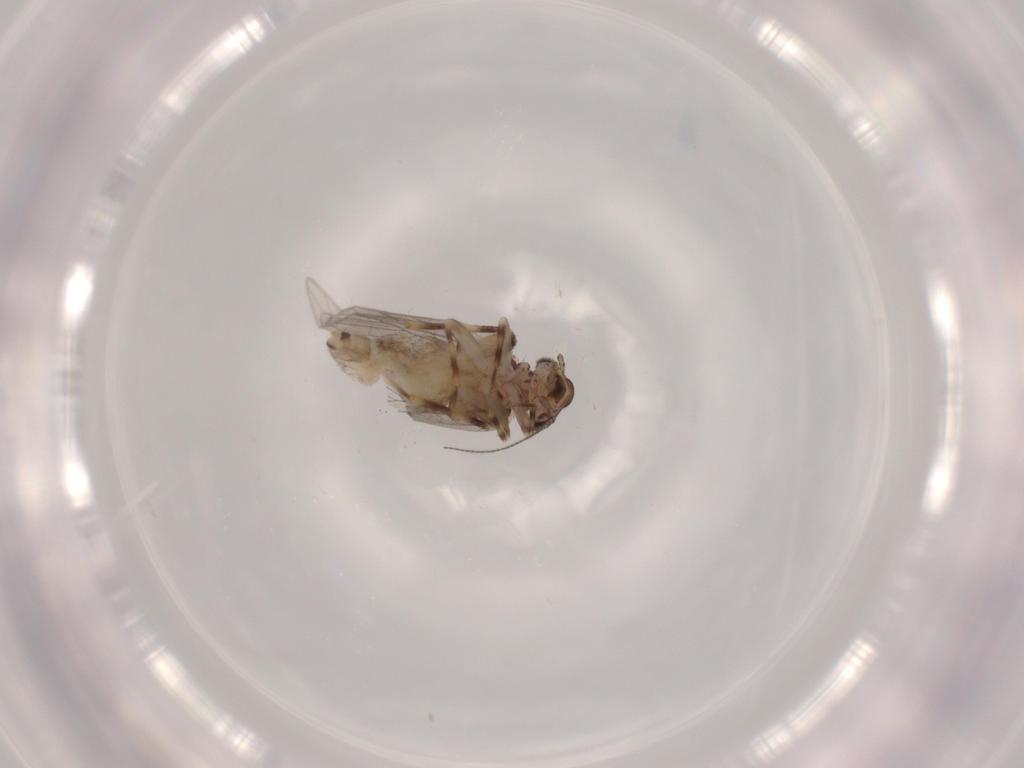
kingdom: Animalia
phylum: Arthropoda
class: Insecta
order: Psocodea
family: Lepidopsocidae
